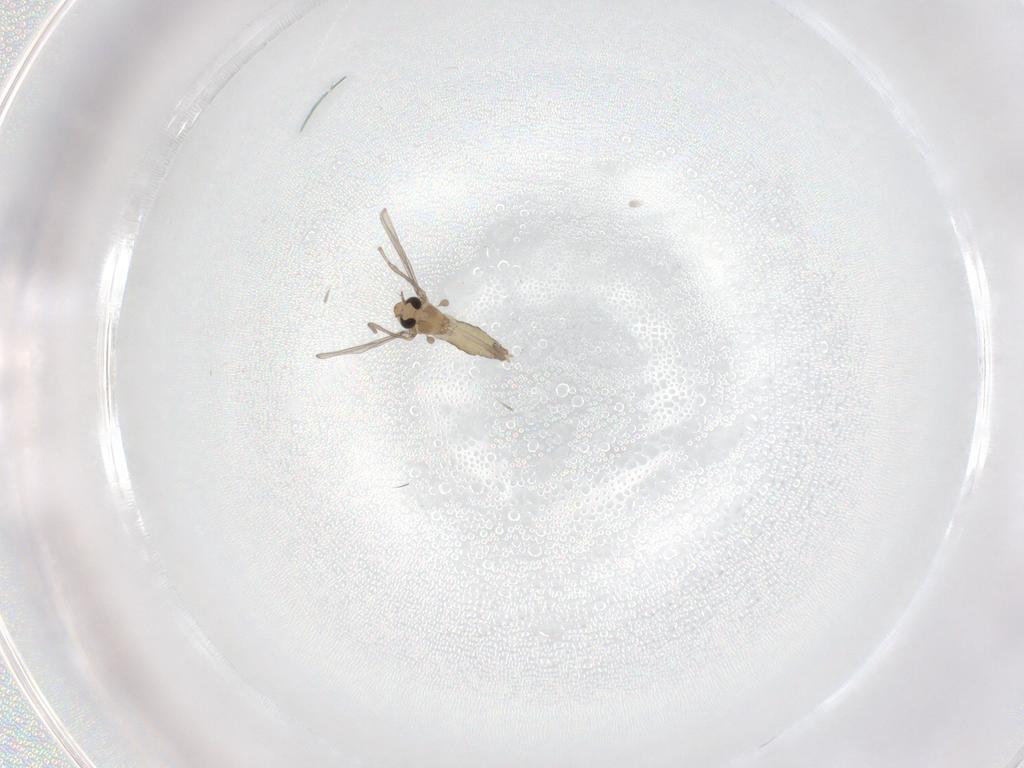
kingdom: Animalia
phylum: Arthropoda
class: Insecta
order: Diptera
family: Chironomidae
